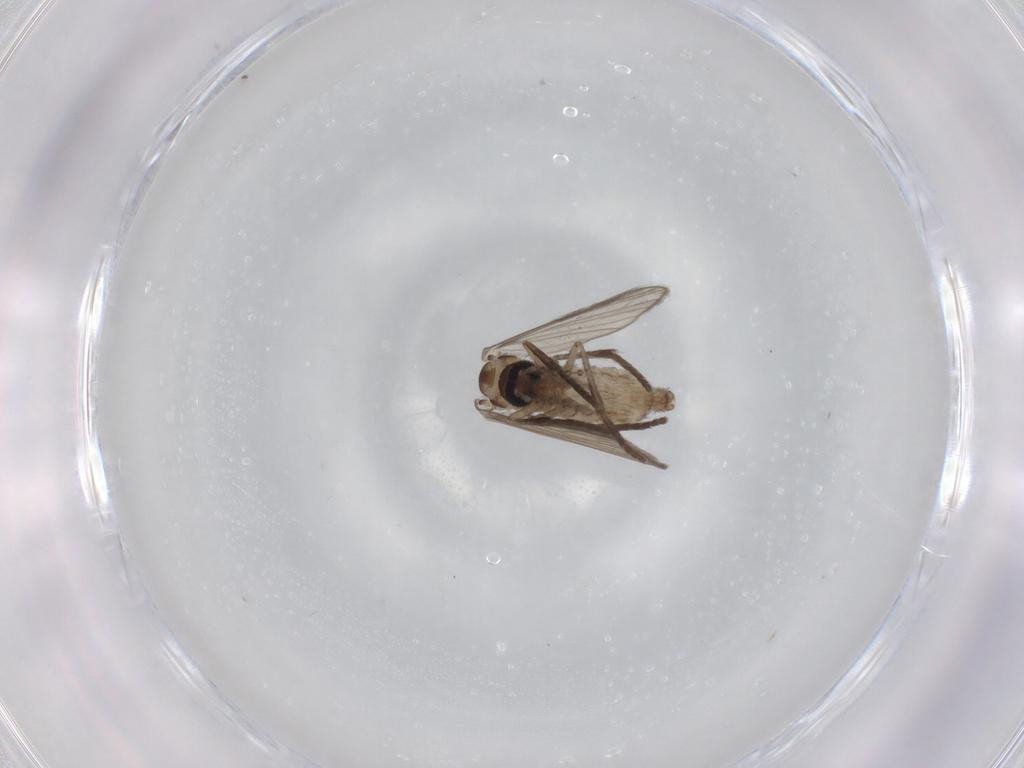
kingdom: Animalia
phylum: Arthropoda
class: Insecta
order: Diptera
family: Psychodidae
